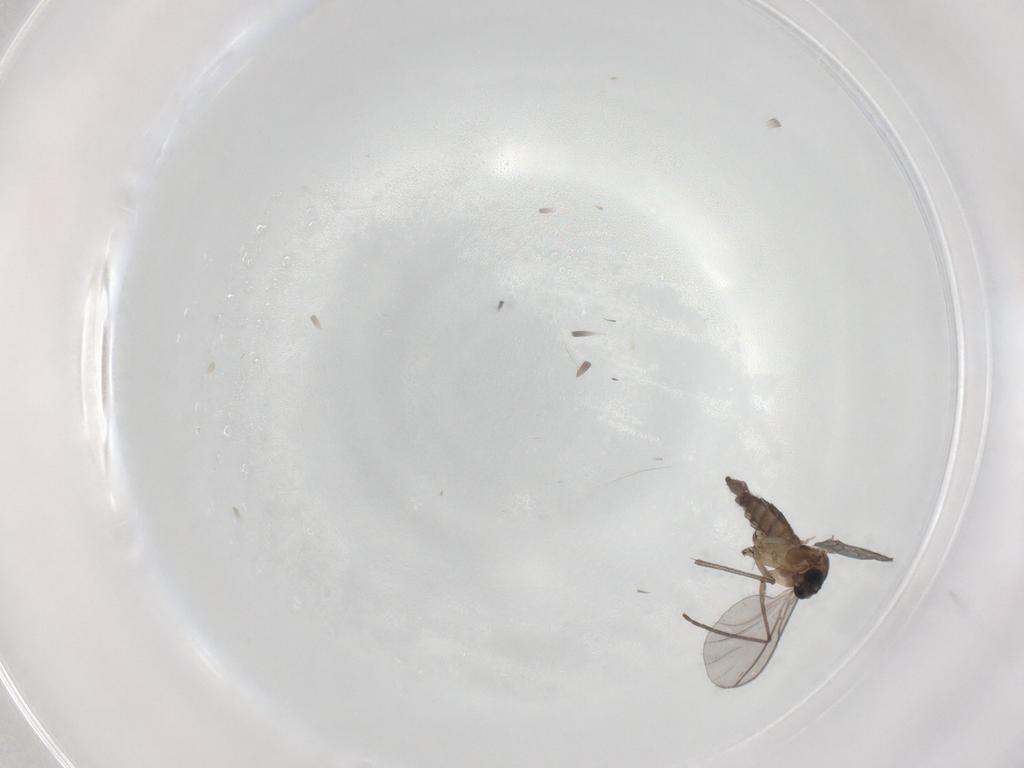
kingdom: Animalia
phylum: Arthropoda
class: Insecta
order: Diptera
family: Sciaridae
